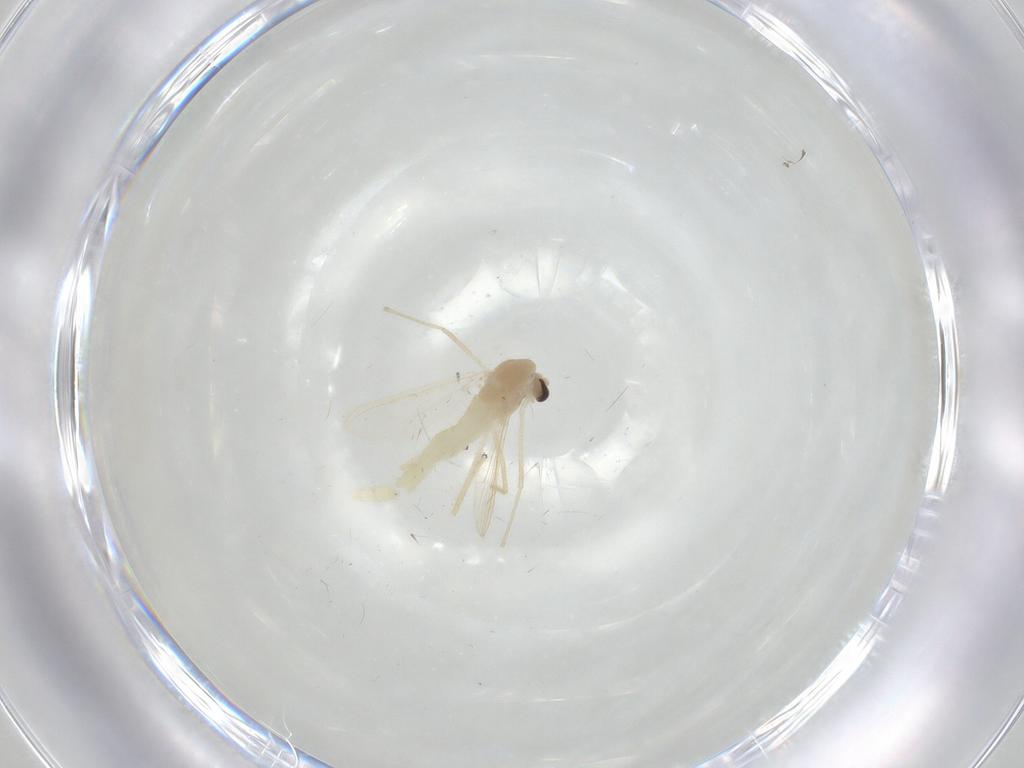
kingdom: Animalia
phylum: Arthropoda
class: Insecta
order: Diptera
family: Chironomidae
